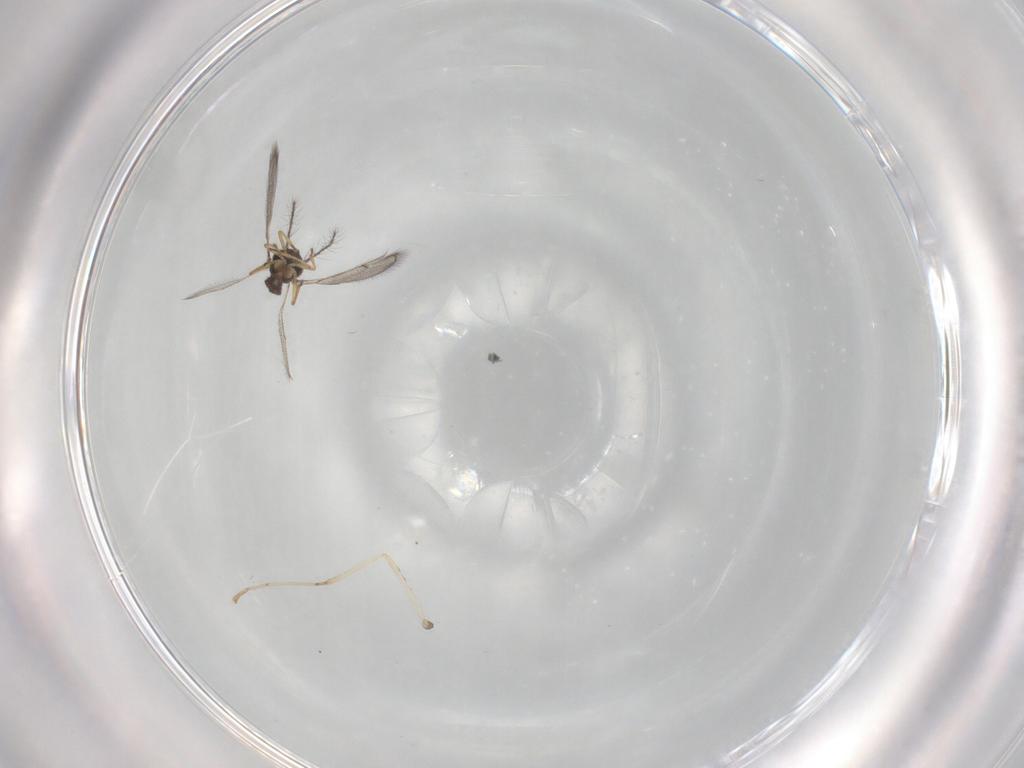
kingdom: Animalia
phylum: Arthropoda
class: Insecta
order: Hymenoptera
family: Eulophidae
